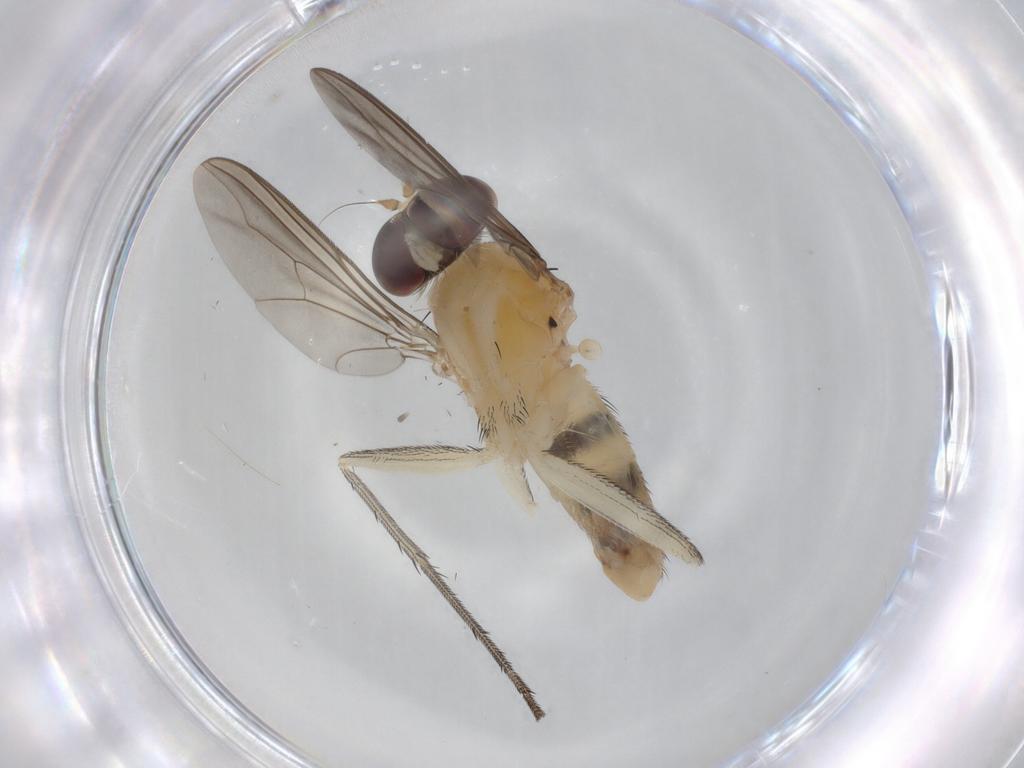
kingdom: Animalia
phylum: Arthropoda
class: Insecta
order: Diptera
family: Dolichopodidae
